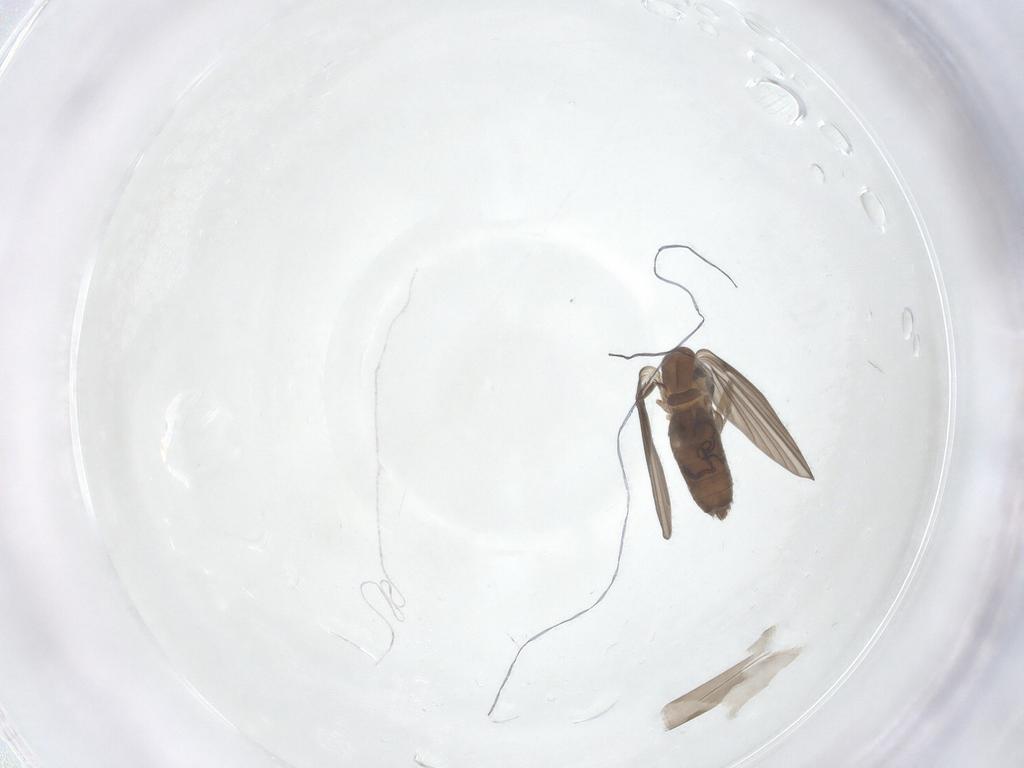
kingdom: Animalia
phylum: Arthropoda
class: Insecta
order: Diptera
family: Psychodidae
